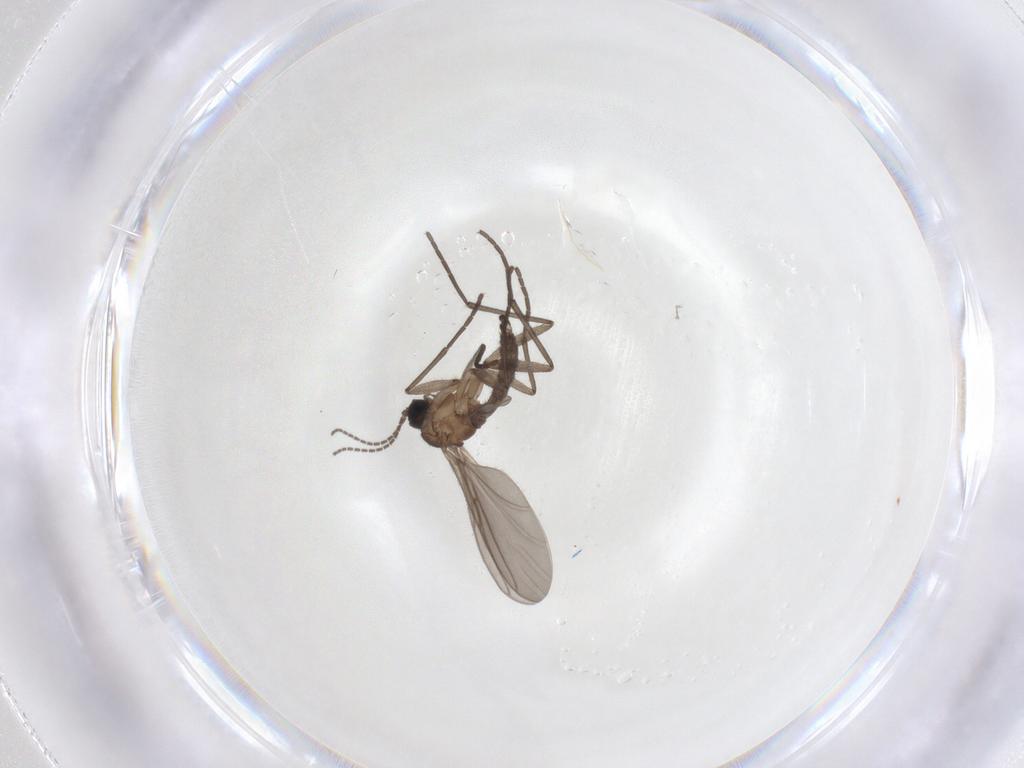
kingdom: Animalia
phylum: Arthropoda
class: Insecta
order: Diptera
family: Sciaridae
